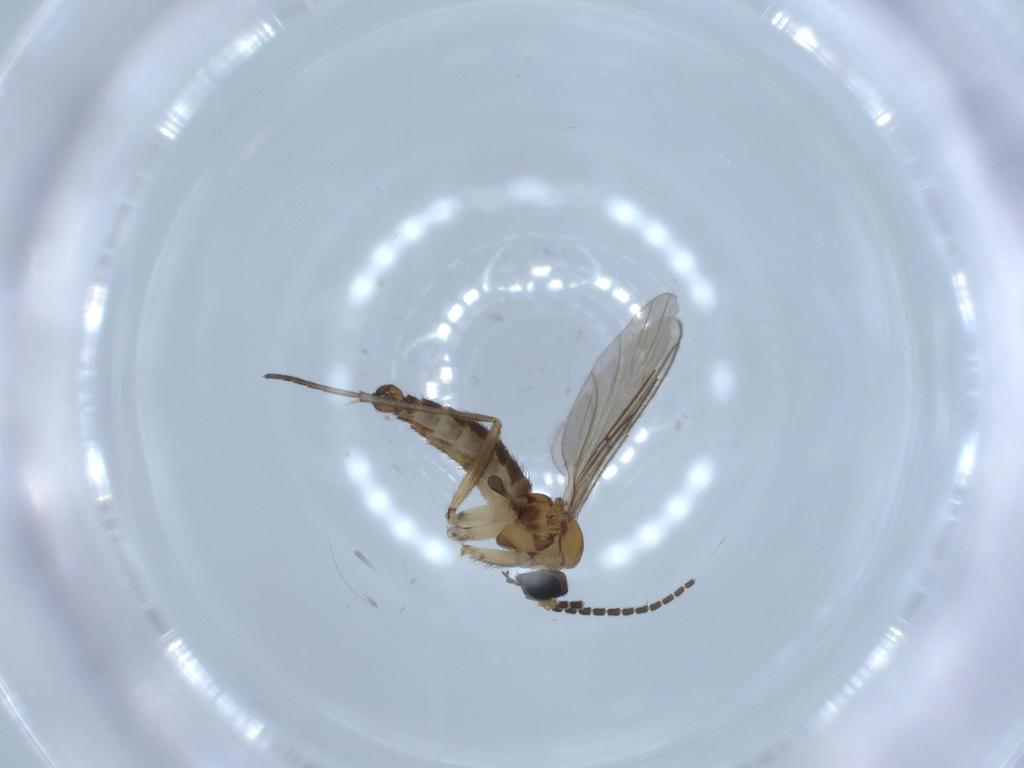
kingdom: Animalia
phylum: Arthropoda
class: Insecta
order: Diptera
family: Sciaridae
